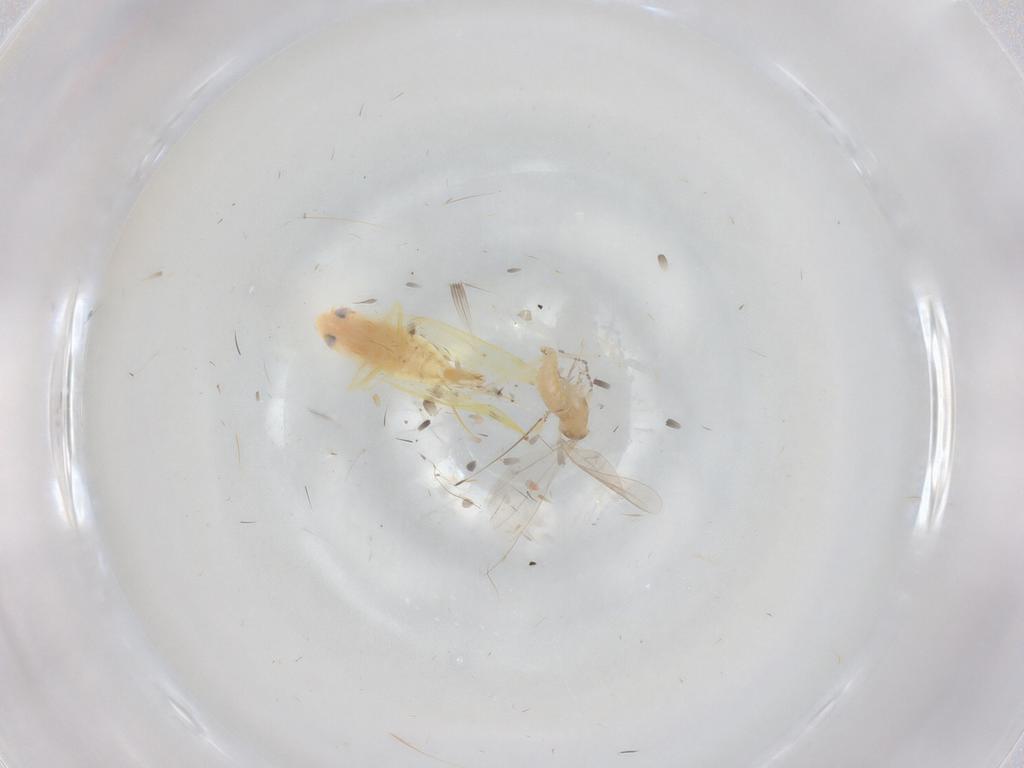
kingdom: Animalia
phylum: Arthropoda
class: Insecta
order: Diptera
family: Cecidomyiidae
